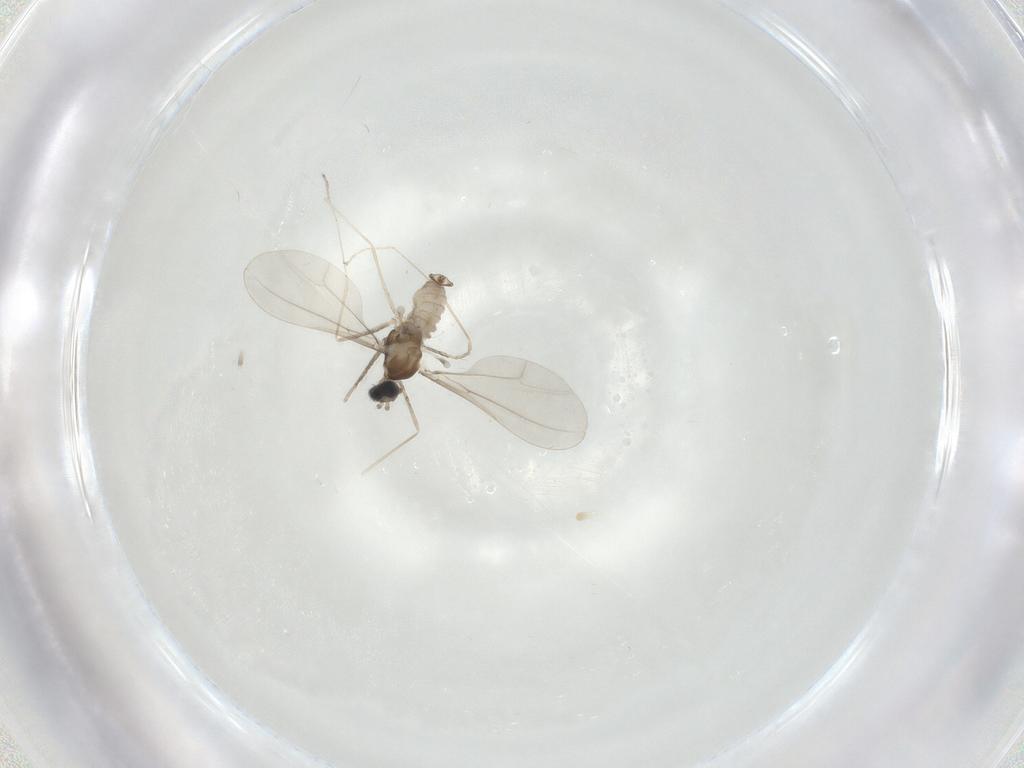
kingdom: Animalia
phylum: Arthropoda
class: Insecta
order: Diptera
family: Cecidomyiidae
